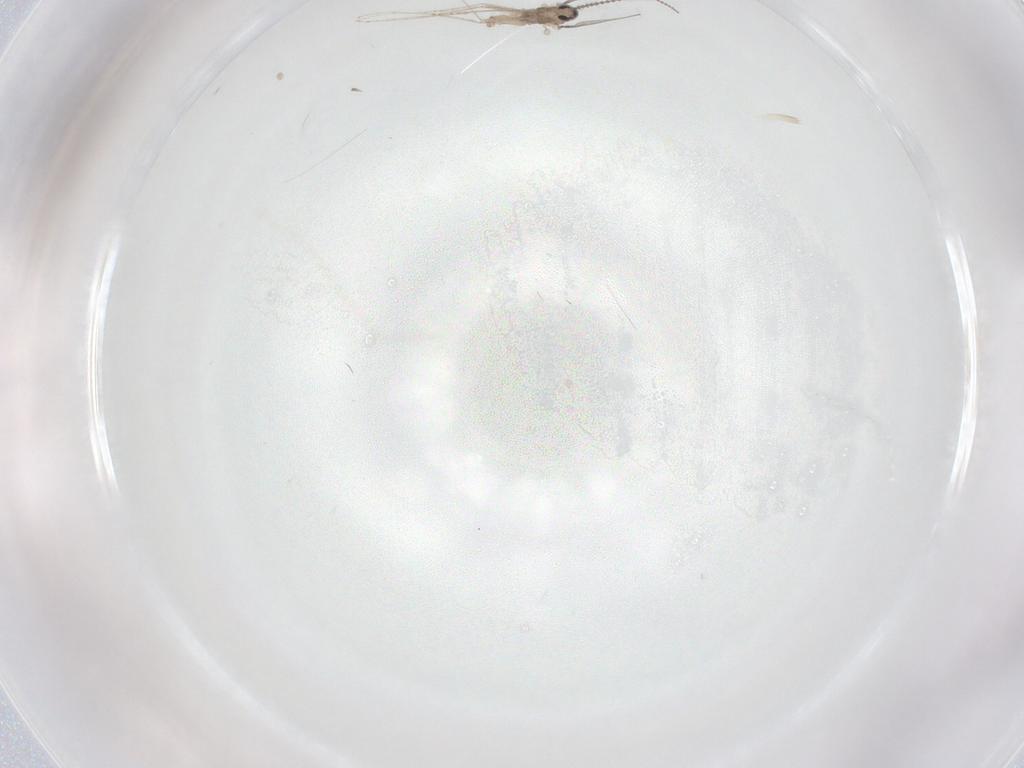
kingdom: Animalia
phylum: Arthropoda
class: Insecta
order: Diptera
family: Cecidomyiidae
